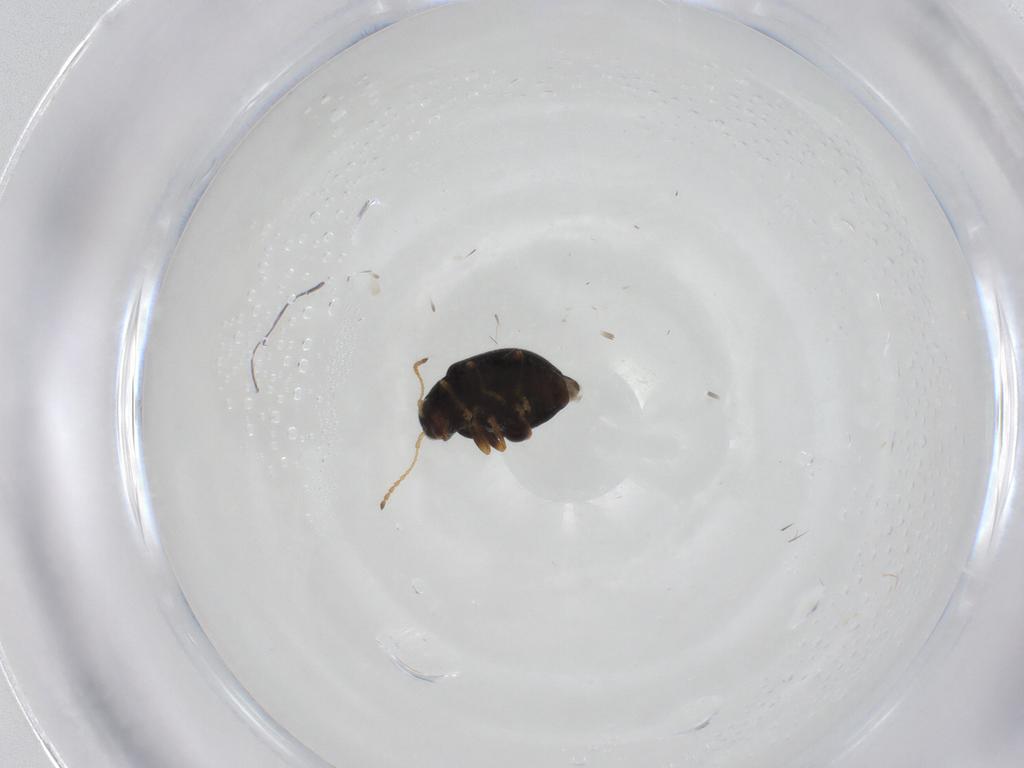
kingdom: Animalia
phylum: Arthropoda
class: Insecta
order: Coleoptera
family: Chrysomelidae
